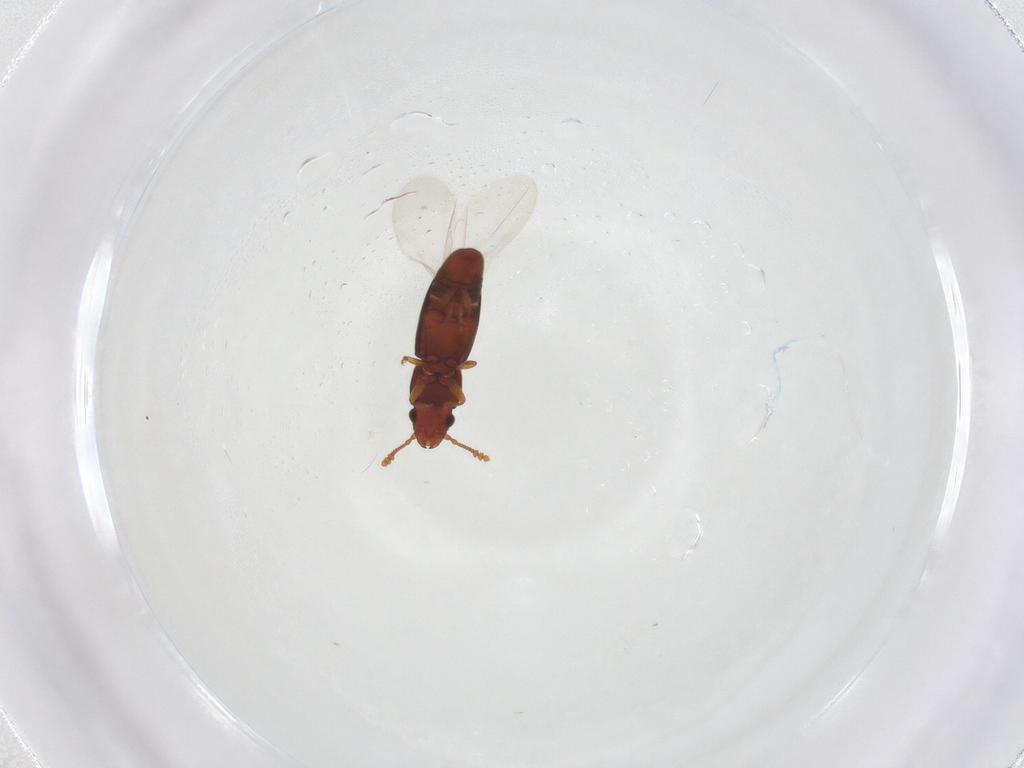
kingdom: Animalia
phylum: Arthropoda
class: Insecta
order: Coleoptera
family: Smicripidae
